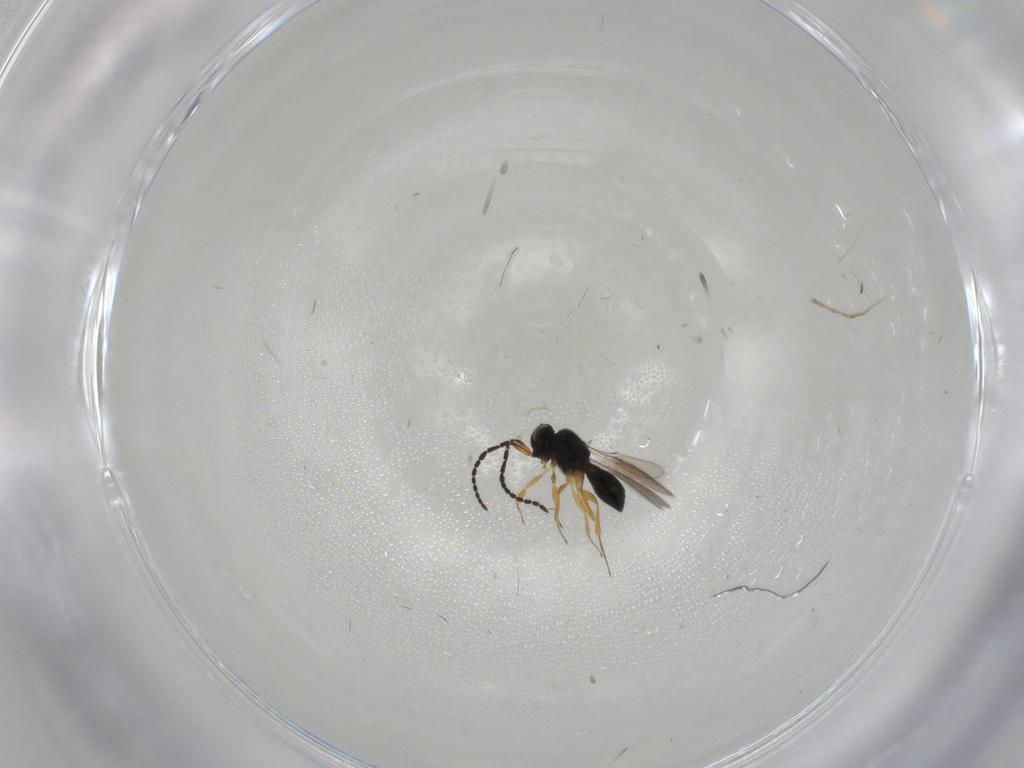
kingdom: Animalia
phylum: Arthropoda
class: Insecta
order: Hymenoptera
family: Scelionidae
